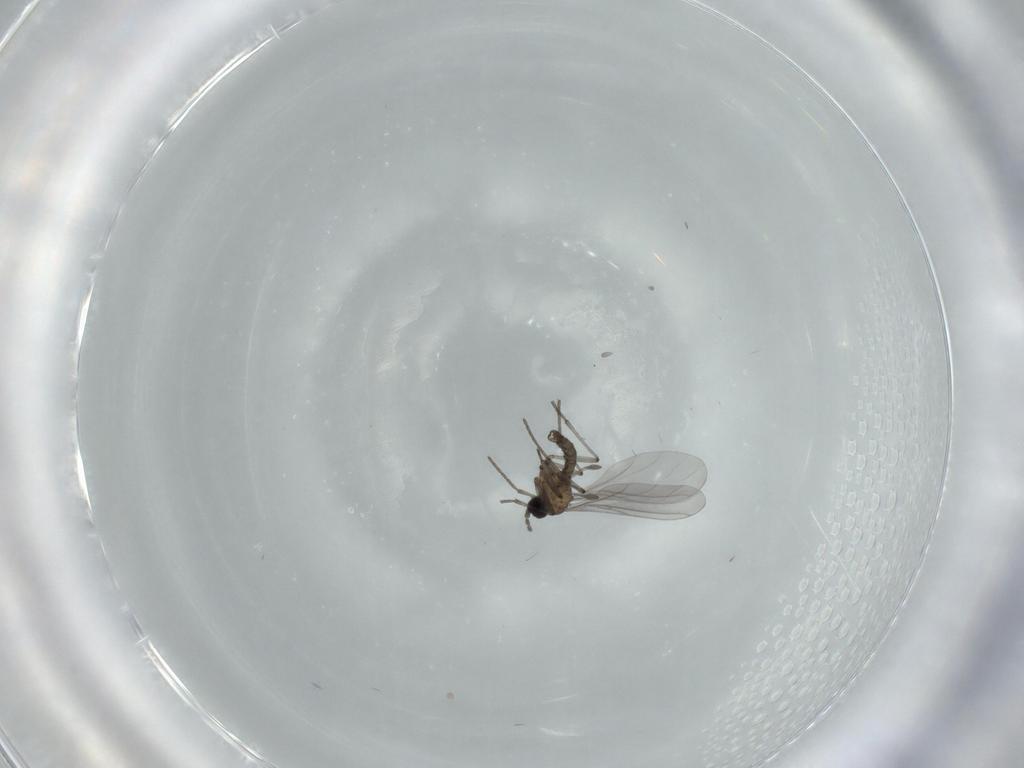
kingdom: Animalia
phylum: Arthropoda
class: Insecta
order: Diptera
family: Sciaridae
